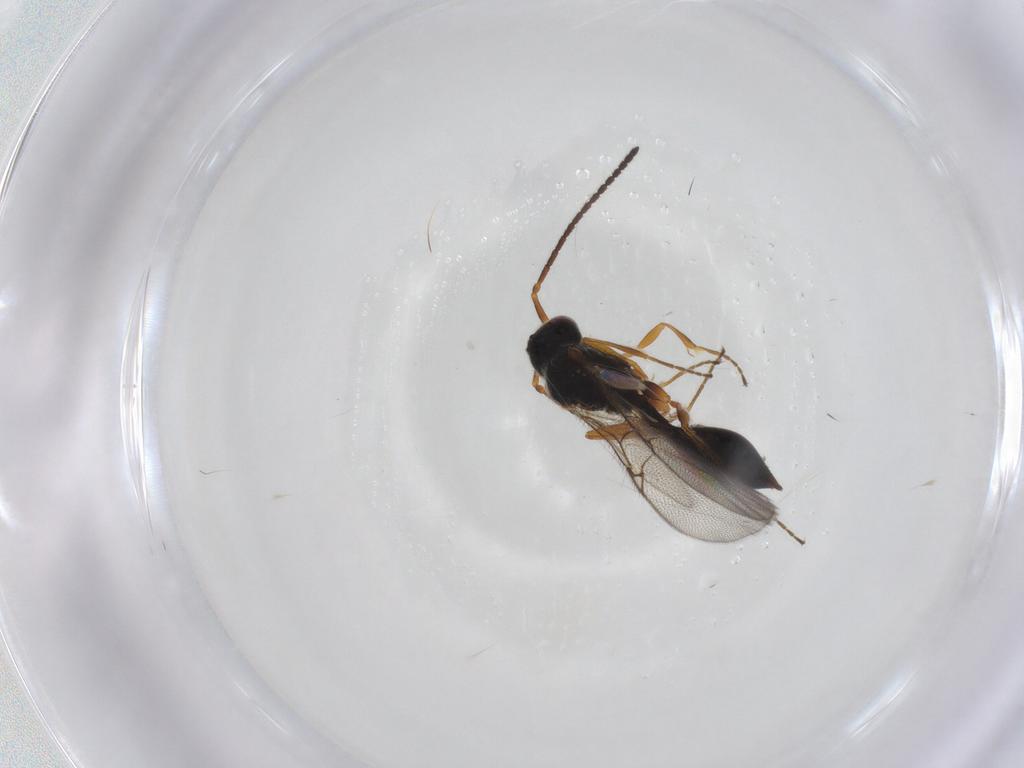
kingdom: Animalia
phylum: Arthropoda
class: Insecta
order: Hymenoptera
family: Diapriidae
